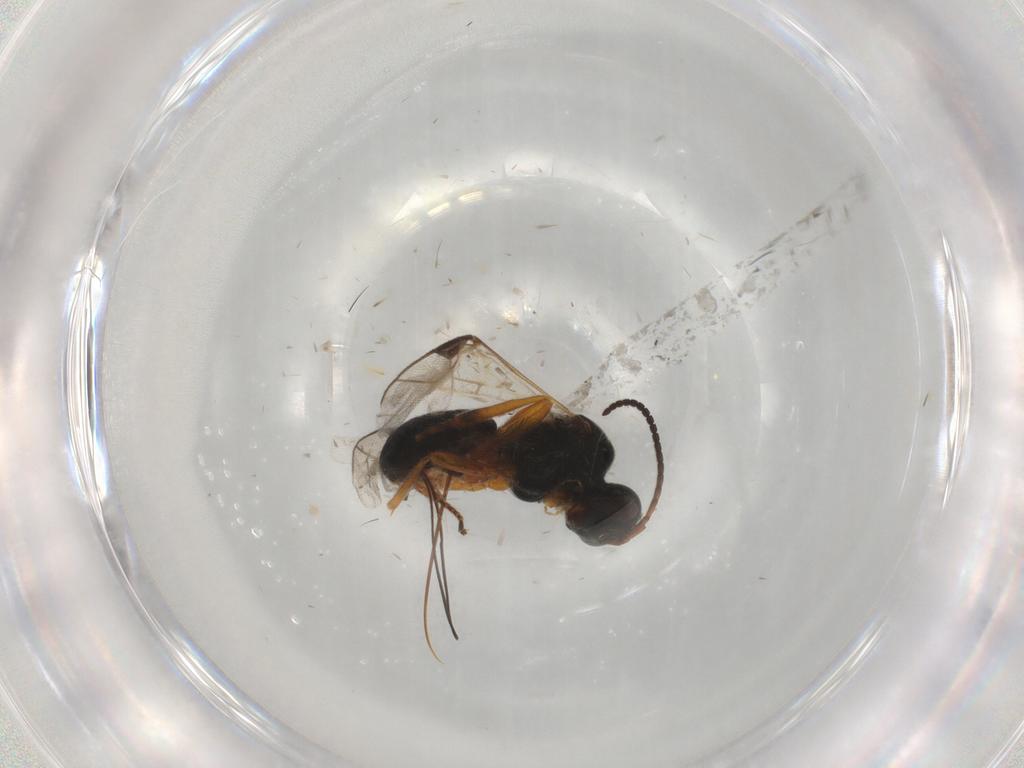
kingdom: Animalia
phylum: Arthropoda
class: Insecta
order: Hymenoptera
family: Braconidae
